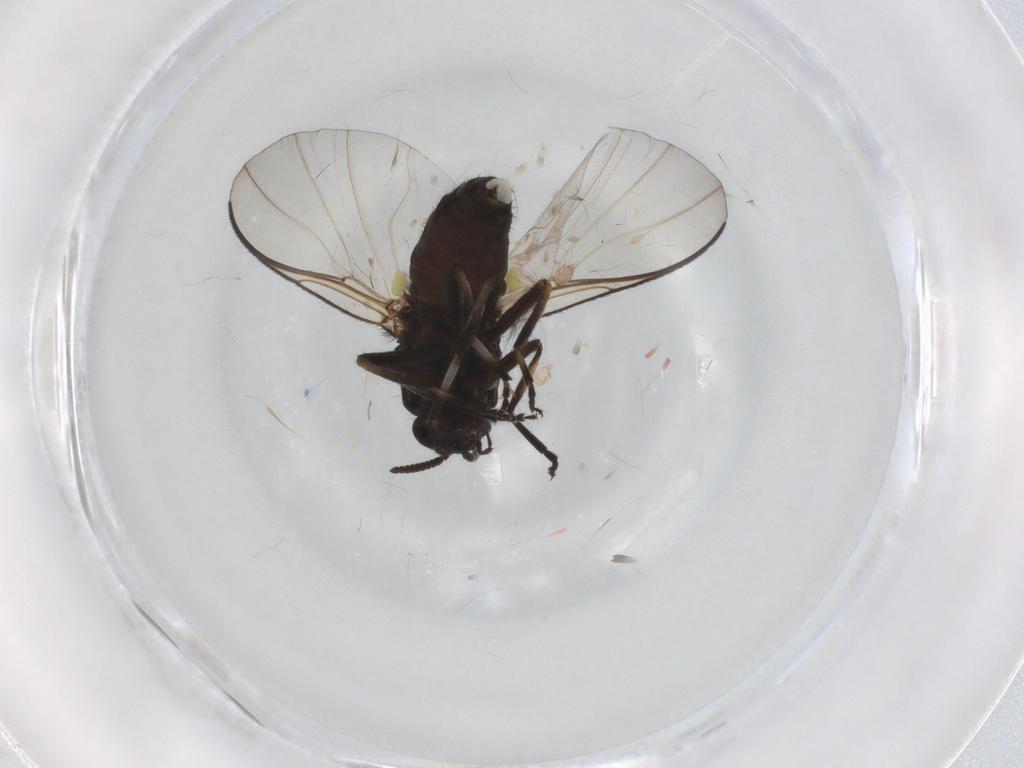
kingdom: Animalia
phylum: Arthropoda
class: Insecta
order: Diptera
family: Chironomidae
